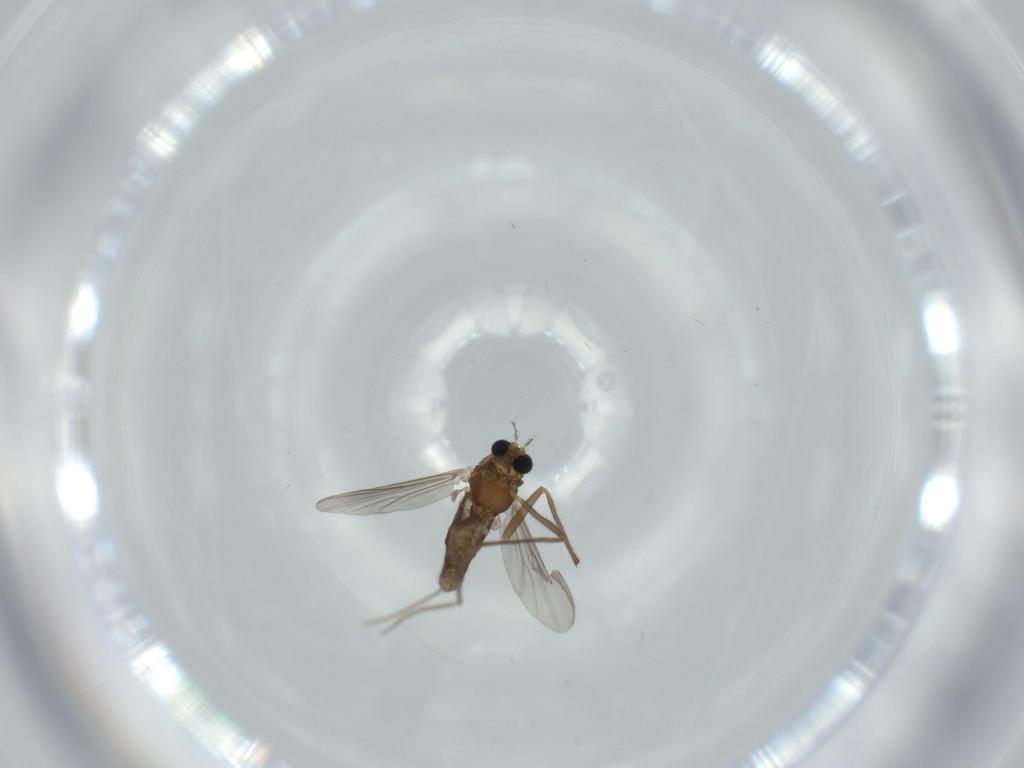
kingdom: Animalia
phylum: Arthropoda
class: Insecta
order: Diptera
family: Chironomidae
